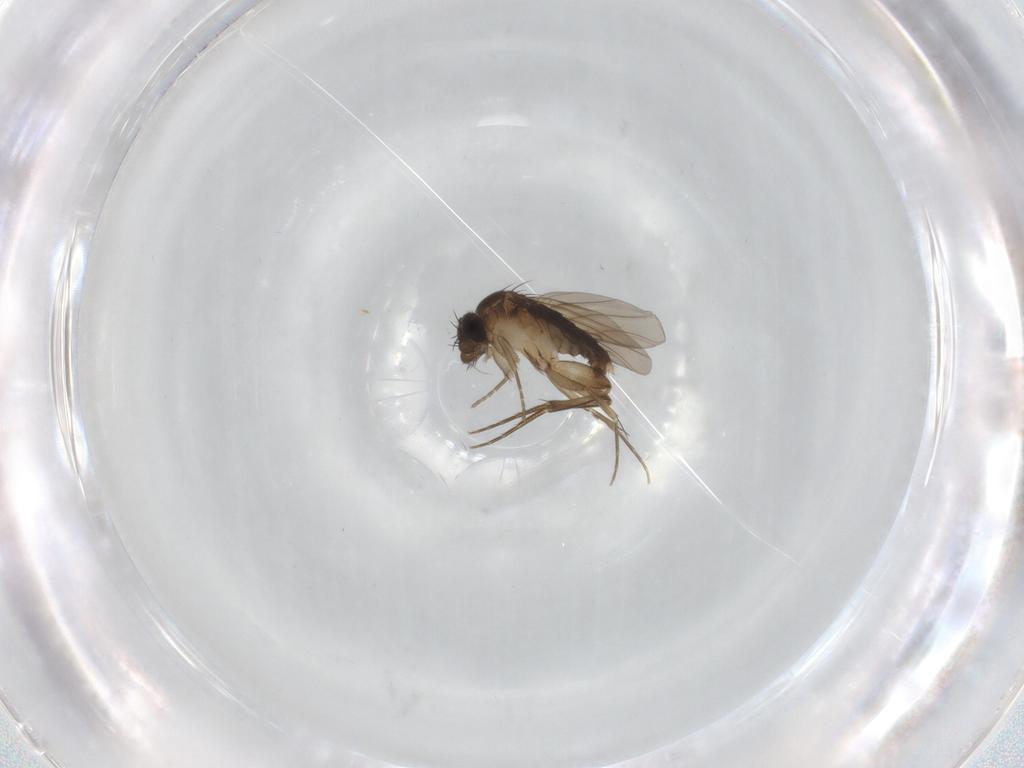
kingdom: Animalia
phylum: Arthropoda
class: Insecta
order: Diptera
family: Phoridae
